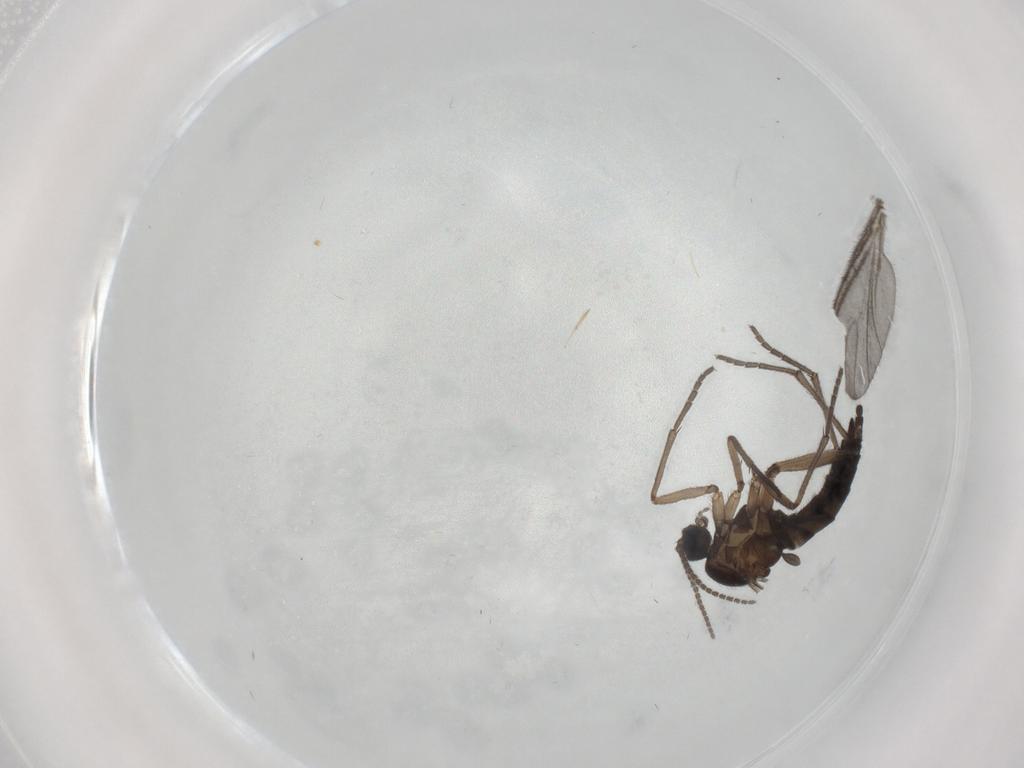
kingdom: Animalia
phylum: Arthropoda
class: Insecta
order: Diptera
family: Sciaridae
